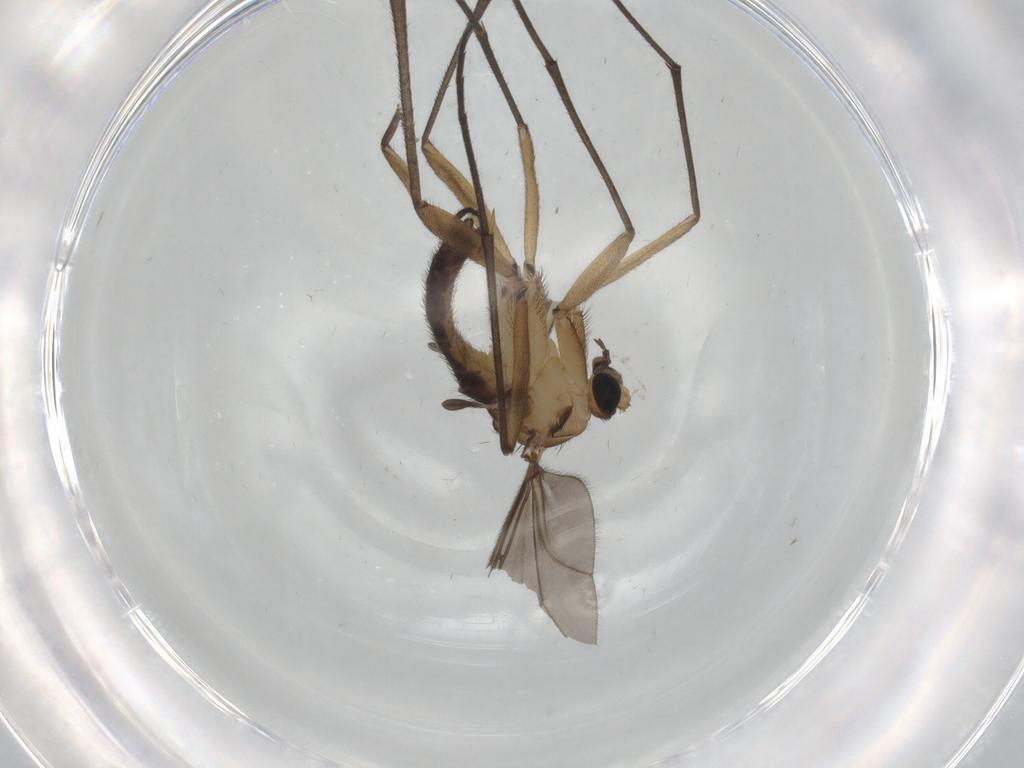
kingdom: Animalia
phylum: Arthropoda
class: Insecta
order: Diptera
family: Sciaridae
